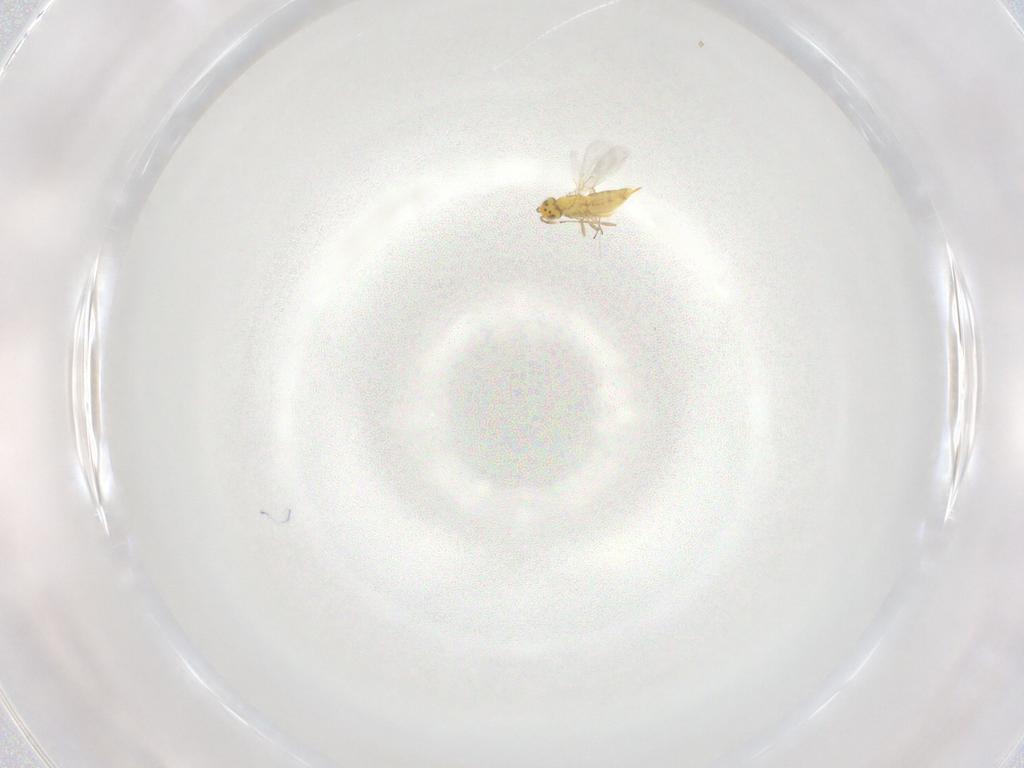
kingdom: Animalia
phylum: Arthropoda
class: Insecta
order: Hymenoptera
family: Aphelinidae
